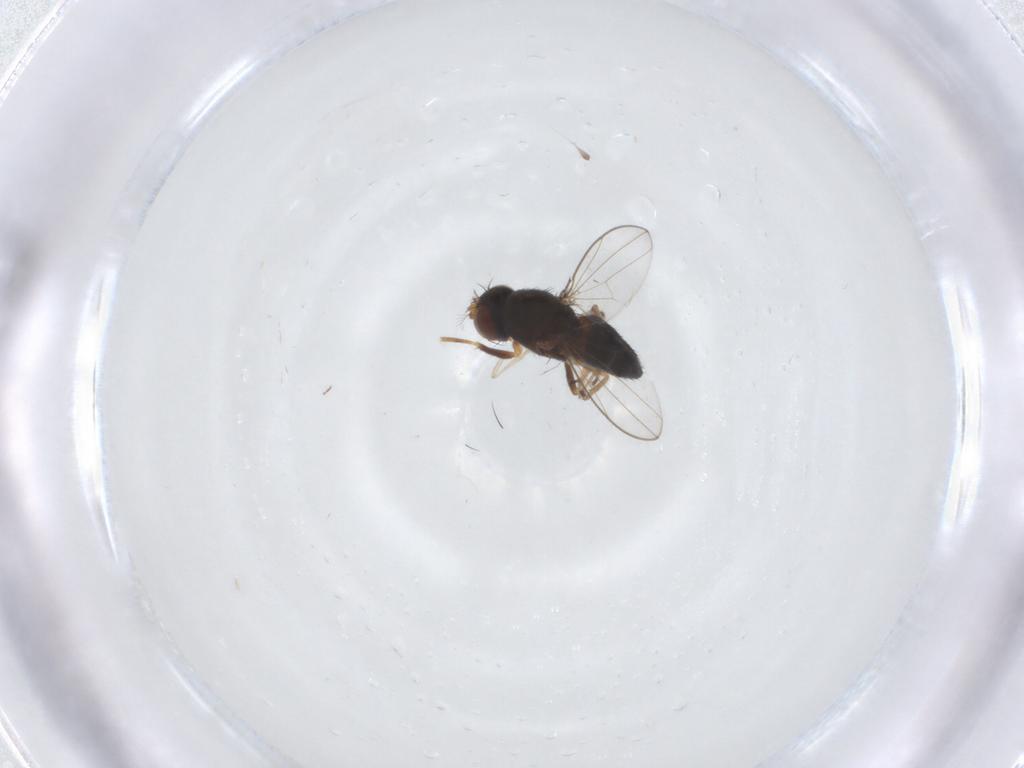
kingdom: Animalia
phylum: Arthropoda
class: Insecta
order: Diptera
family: Ephydridae
